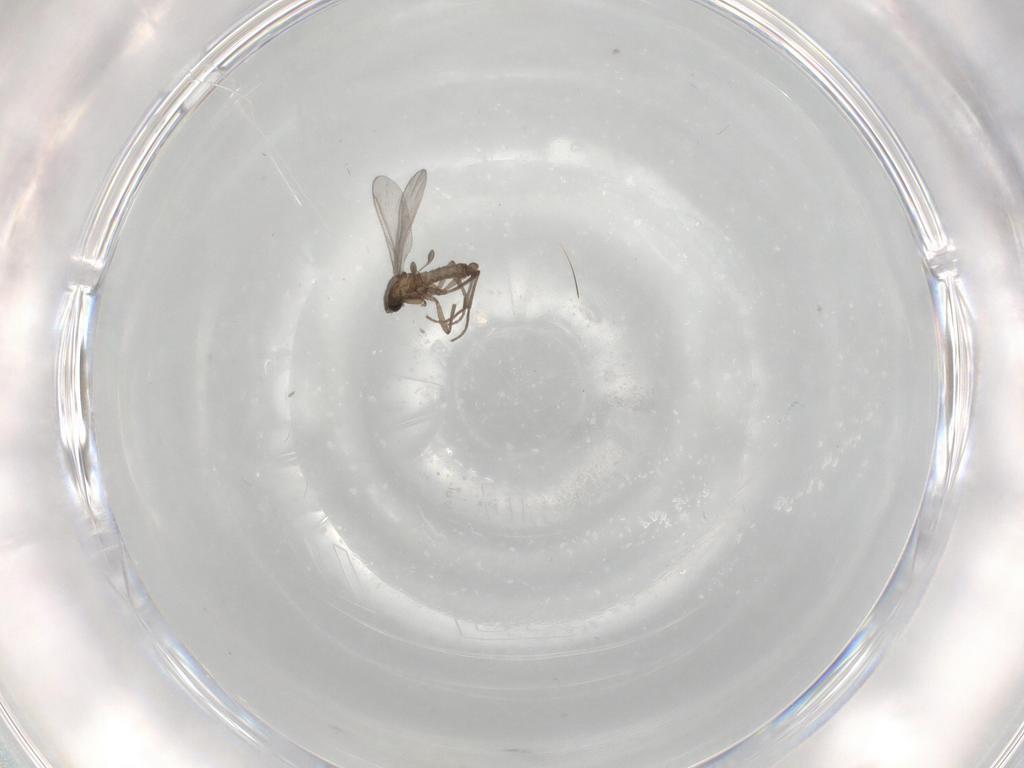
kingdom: Animalia
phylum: Arthropoda
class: Insecta
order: Diptera
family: Sciaridae
